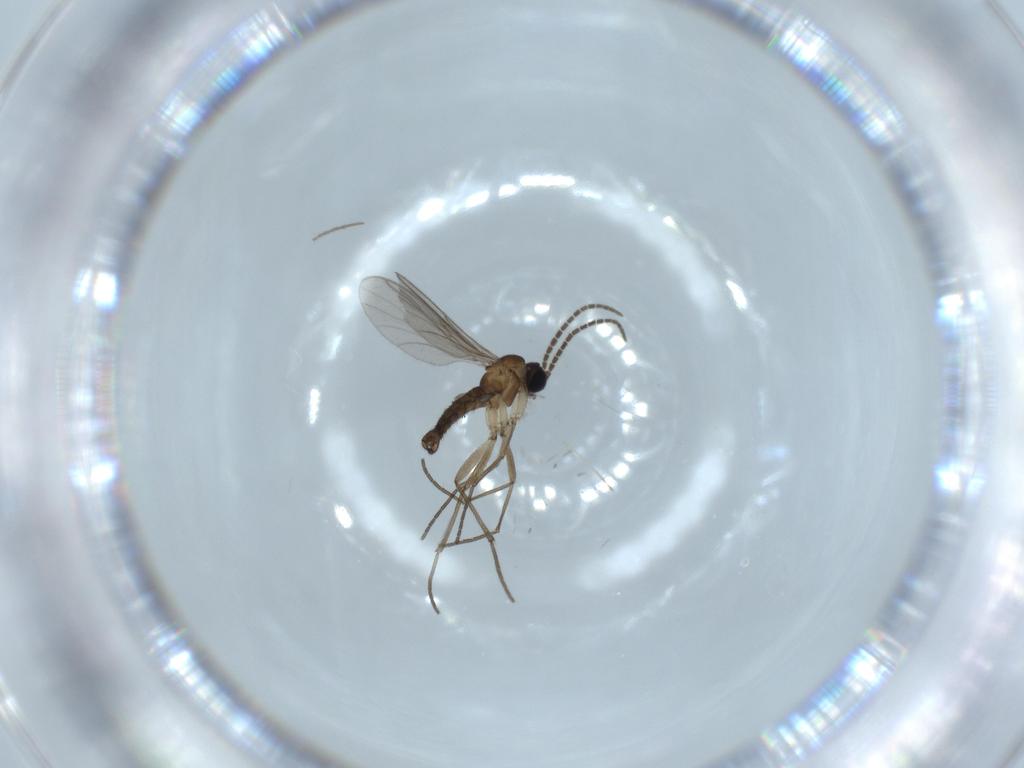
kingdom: Animalia
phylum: Arthropoda
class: Insecta
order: Diptera
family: Sciaridae
